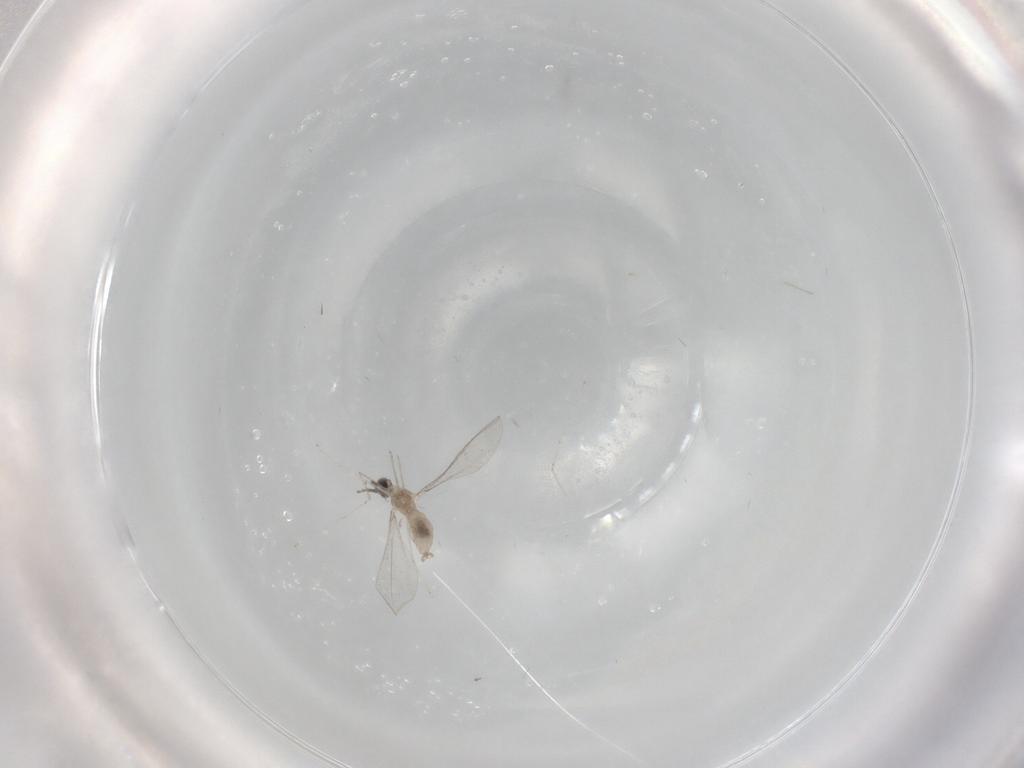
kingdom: Animalia
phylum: Arthropoda
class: Insecta
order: Diptera
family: Cecidomyiidae
